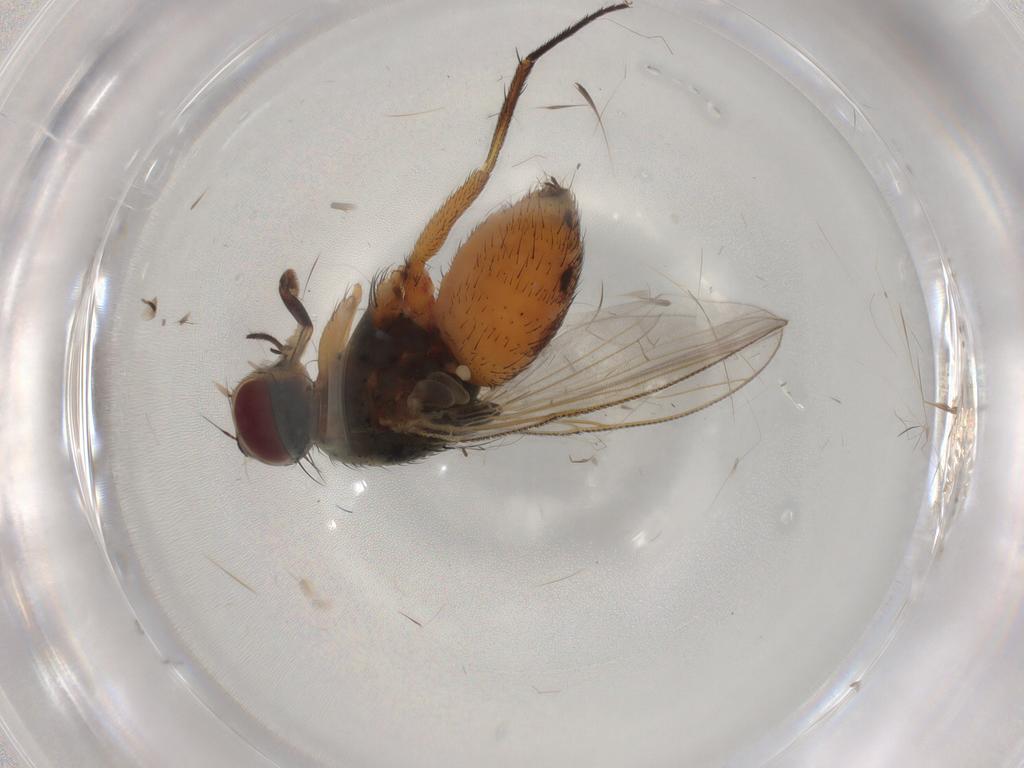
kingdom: Animalia
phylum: Arthropoda
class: Insecta
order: Diptera
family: Muscidae
